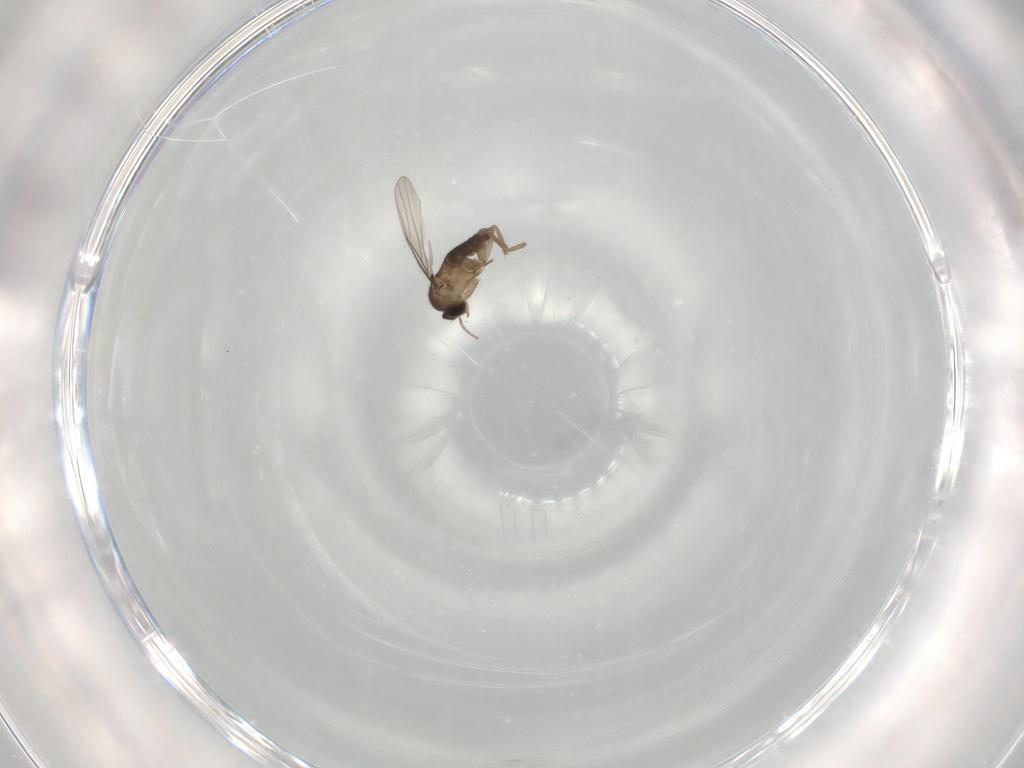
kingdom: Animalia
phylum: Arthropoda
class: Insecta
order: Diptera
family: Phoridae
